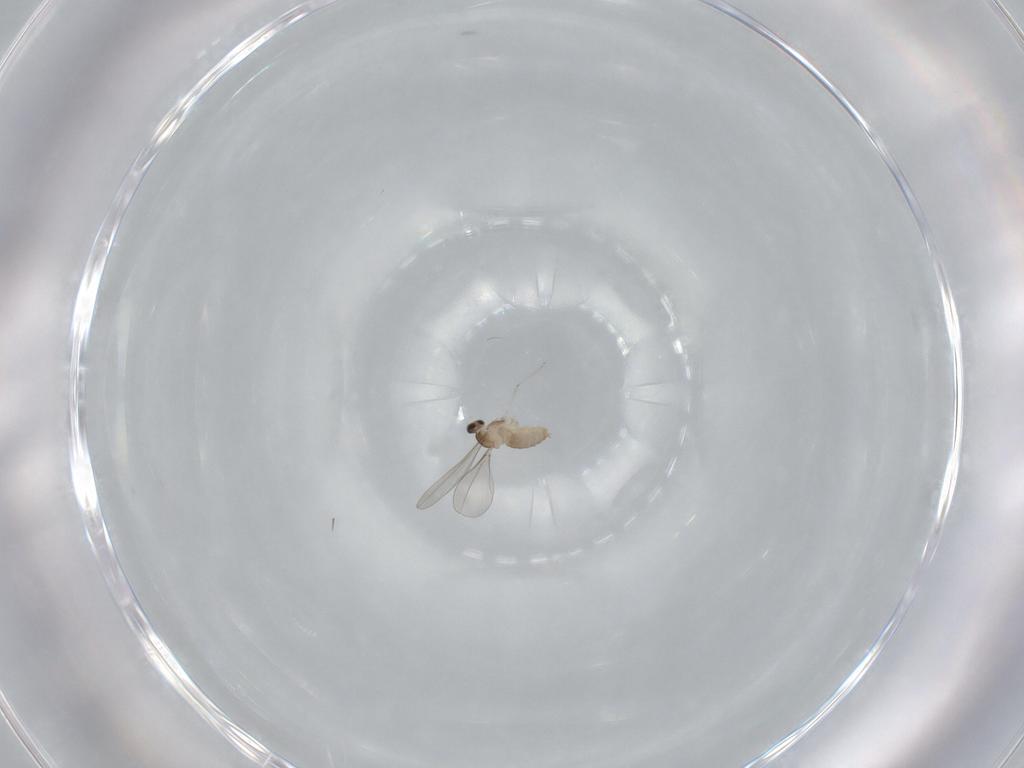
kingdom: Animalia
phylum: Arthropoda
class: Insecta
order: Diptera
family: Cecidomyiidae
